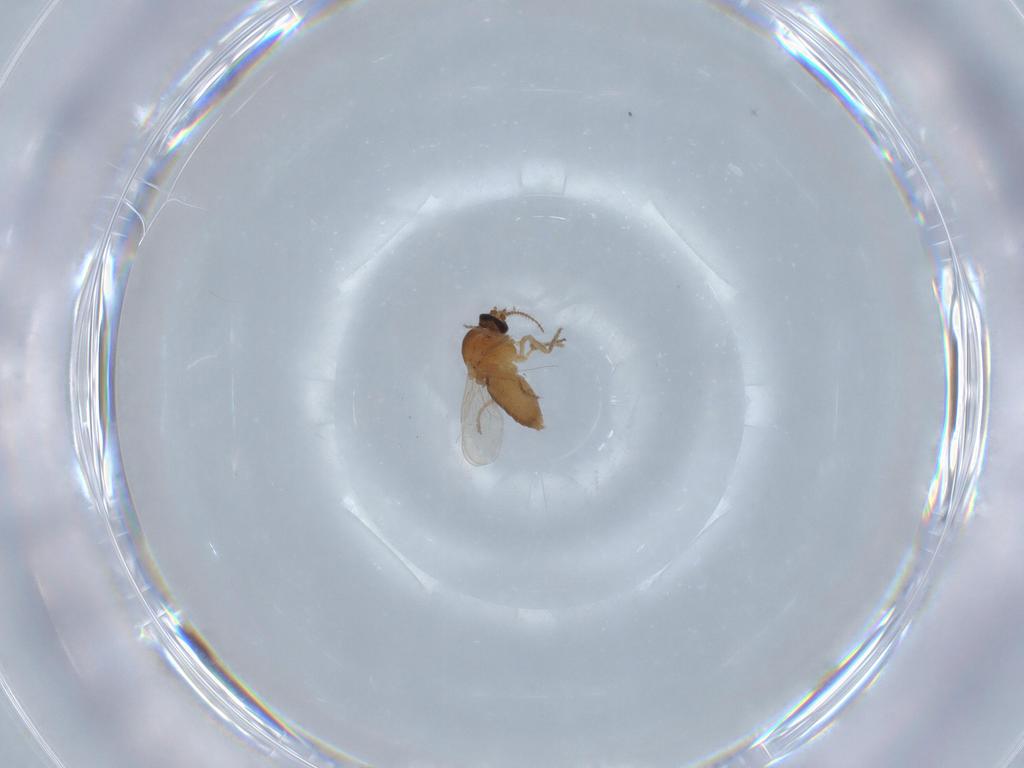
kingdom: Animalia
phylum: Arthropoda
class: Insecta
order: Diptera
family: Ceratopogonidae
